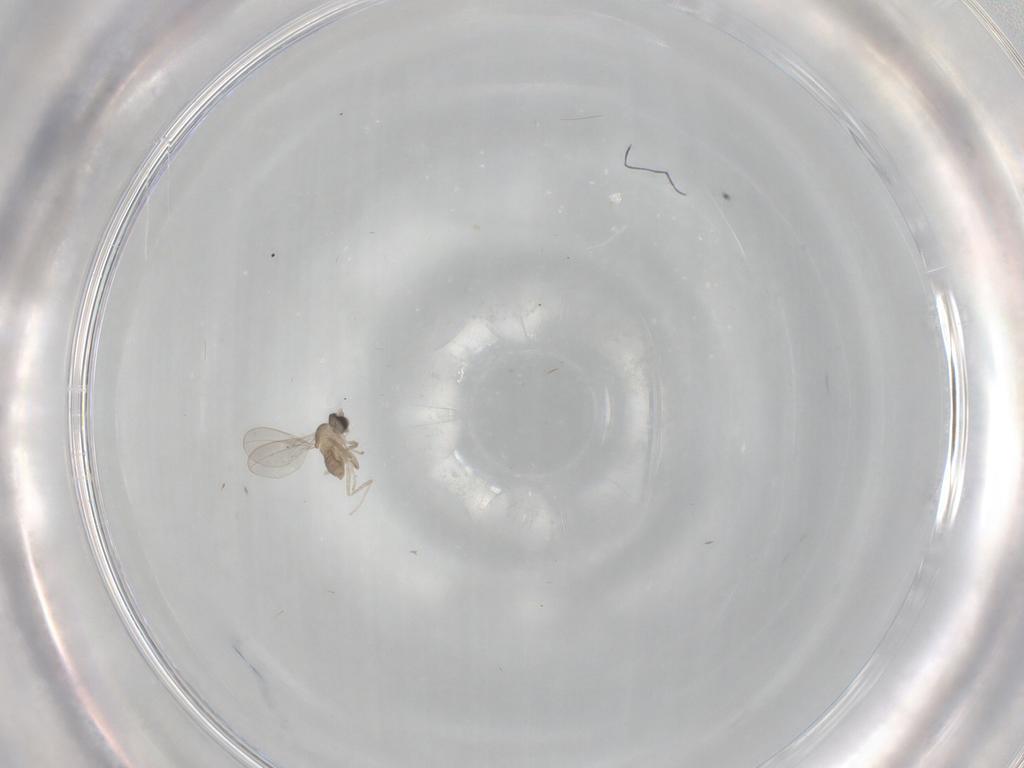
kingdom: Animalia
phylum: Arthropoda
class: Insecta
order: Diptera
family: Cecidomyiidae
